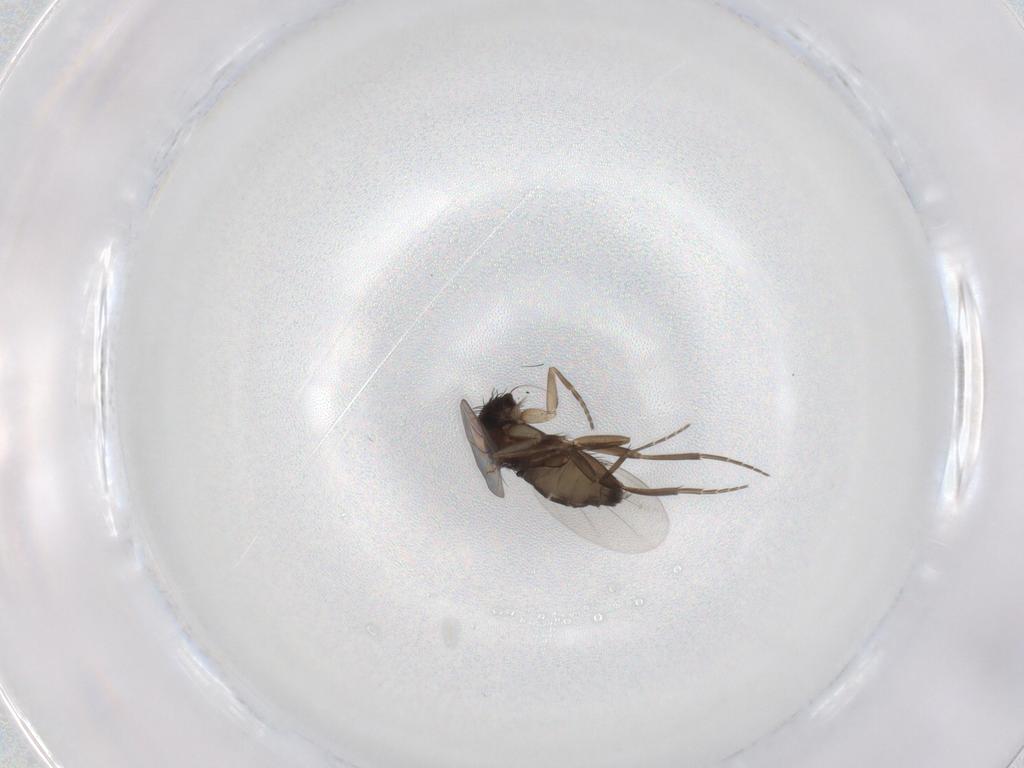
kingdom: Animalia
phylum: Arthropoda
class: Insecta
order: Diptera
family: Phoridae
